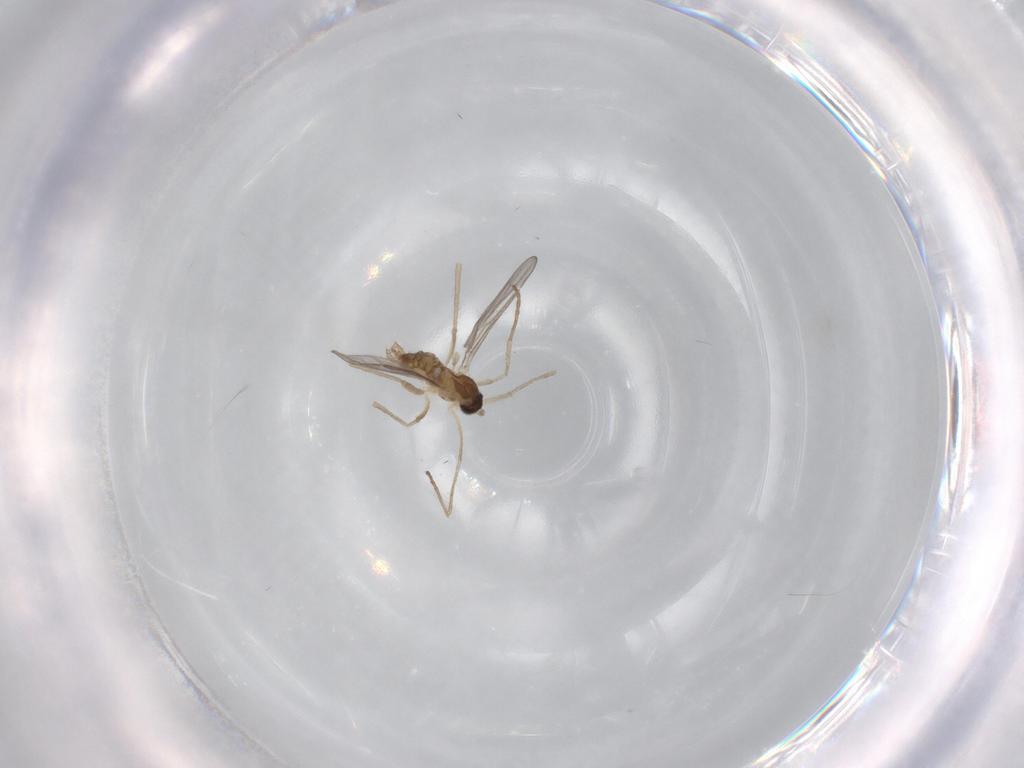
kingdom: Animalia
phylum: Arthropoda
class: Insecta
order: Diptera
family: Cecidomyiidae
